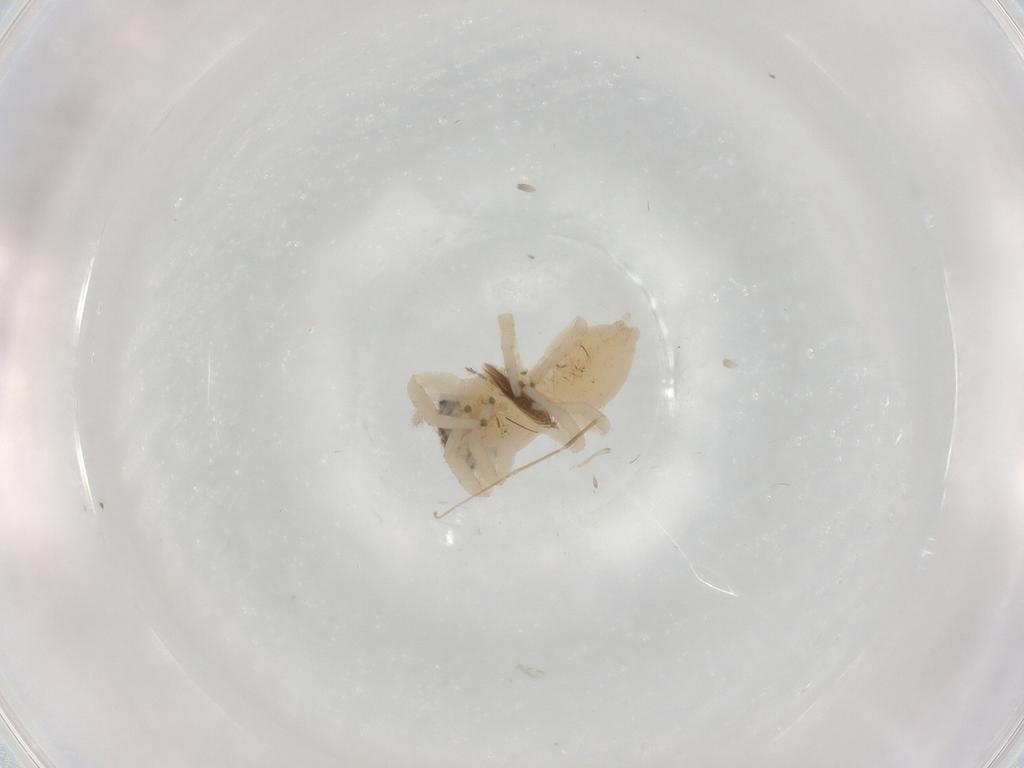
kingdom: Animalia
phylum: Arthropoda
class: Arachnida
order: Araneae
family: Salticidae
